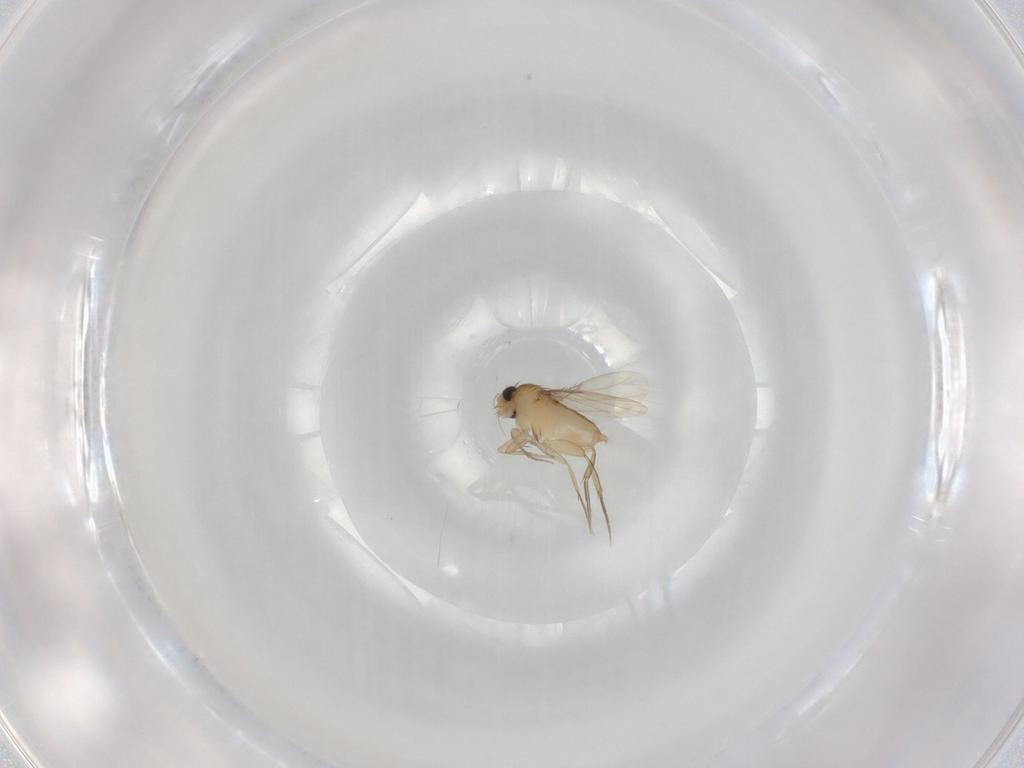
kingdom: Animalia
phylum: Arthropoda
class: Insecta
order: Diptera
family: Phoridae
